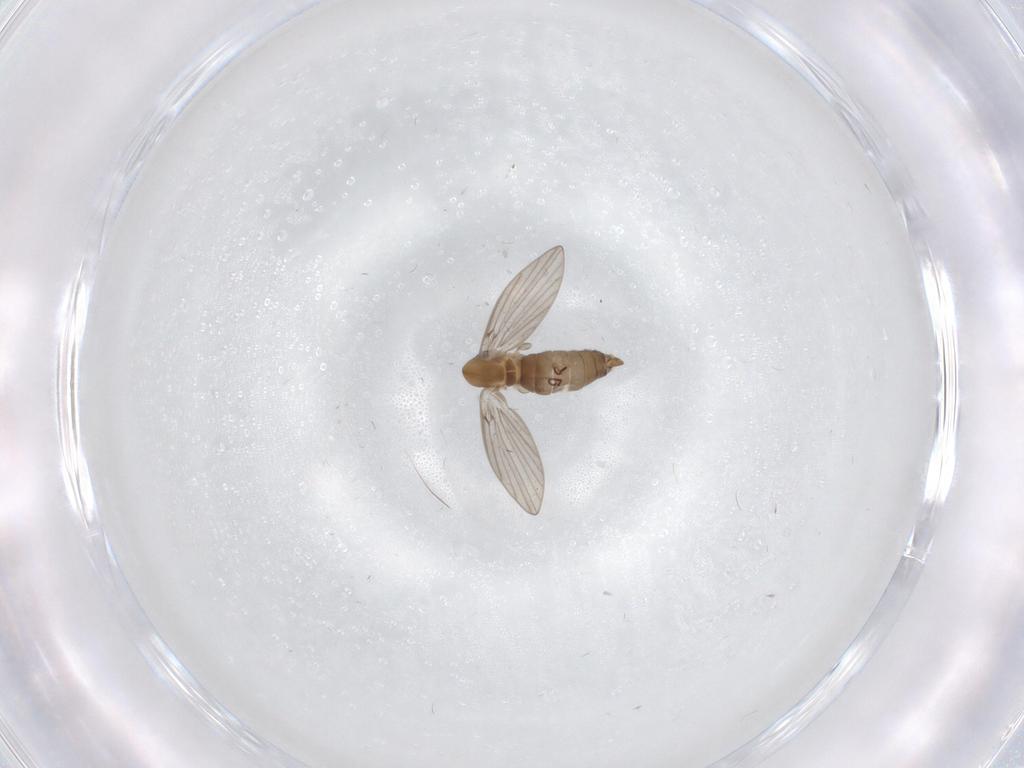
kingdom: Animalia
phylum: Arthropoda
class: Insecta
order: Diptera
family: Psychodidae
